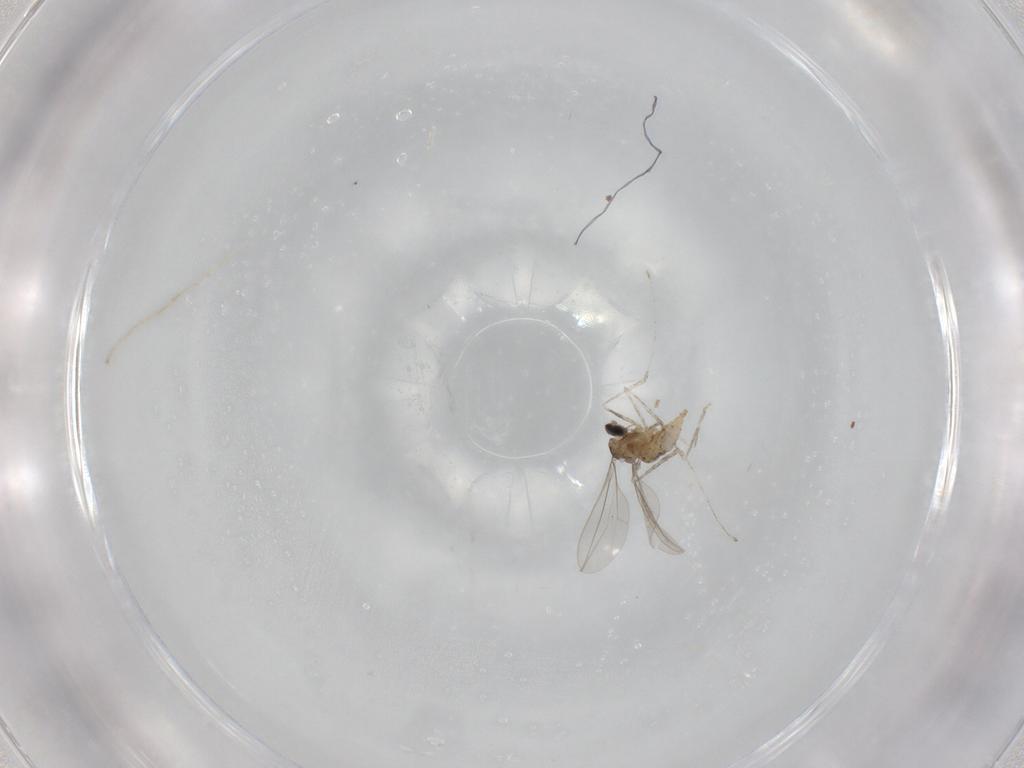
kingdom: Animalia
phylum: Arthropoda
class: Insecta
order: Diptera
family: Cecidomyiidae
